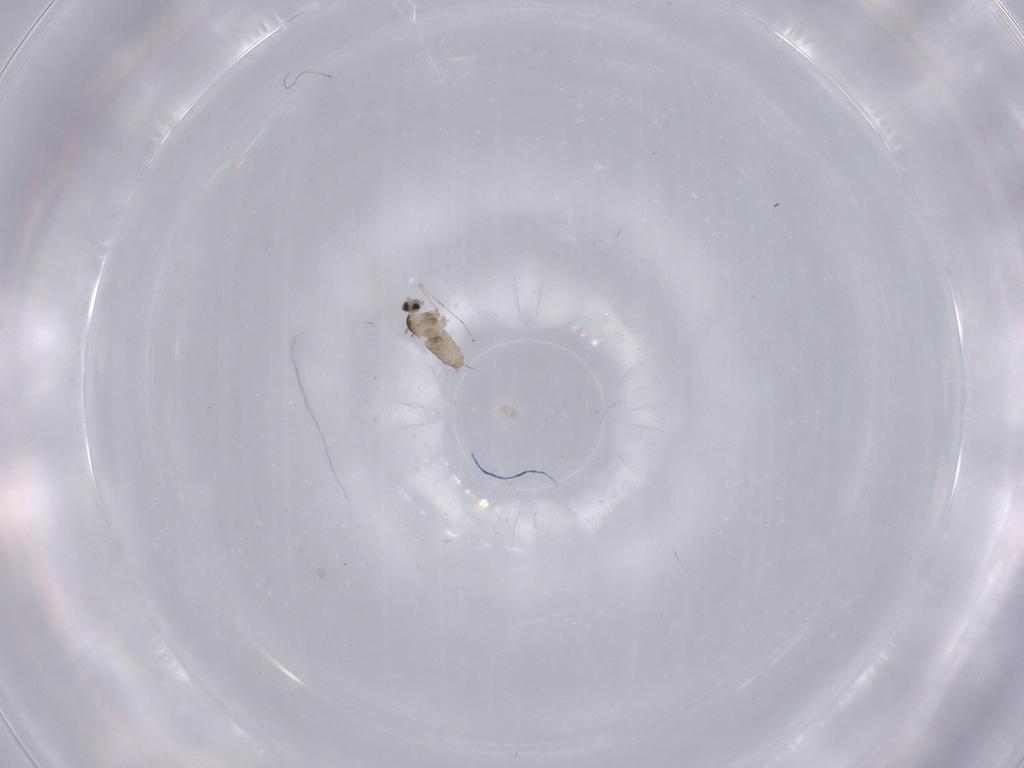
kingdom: Animalia
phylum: Arthropoda
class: Insecta
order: Diptera
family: Cecidomyiidae
